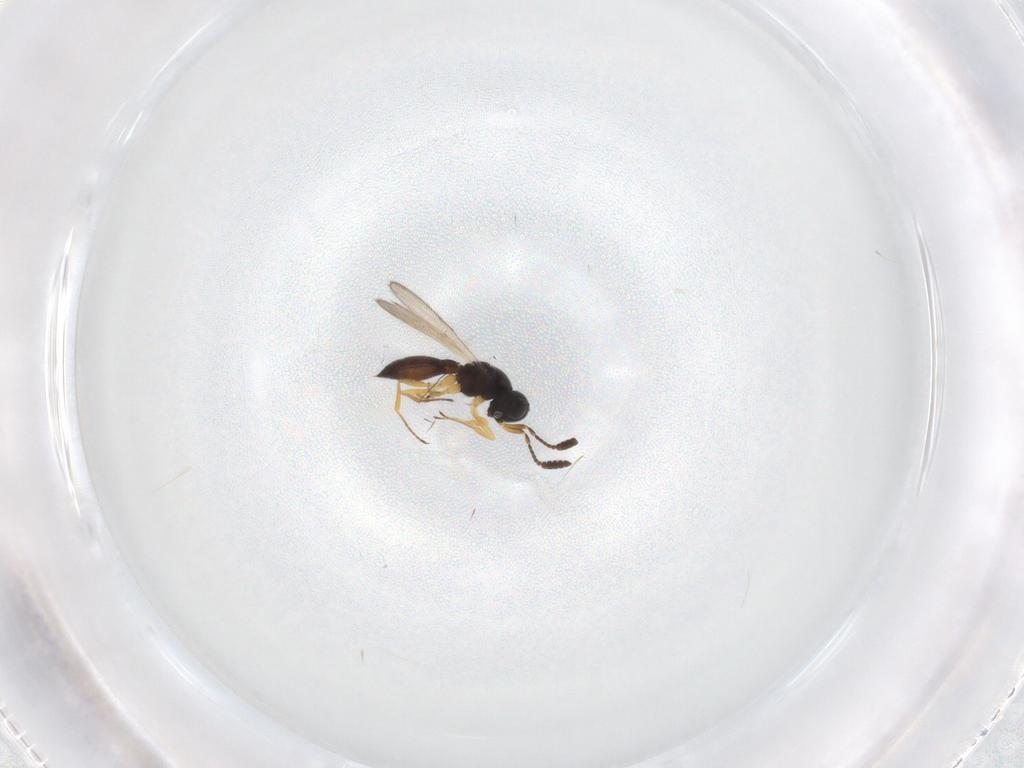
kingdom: Animalia
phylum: Arthropoda
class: Insecta
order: Hymenoptera
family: Scelionidae
